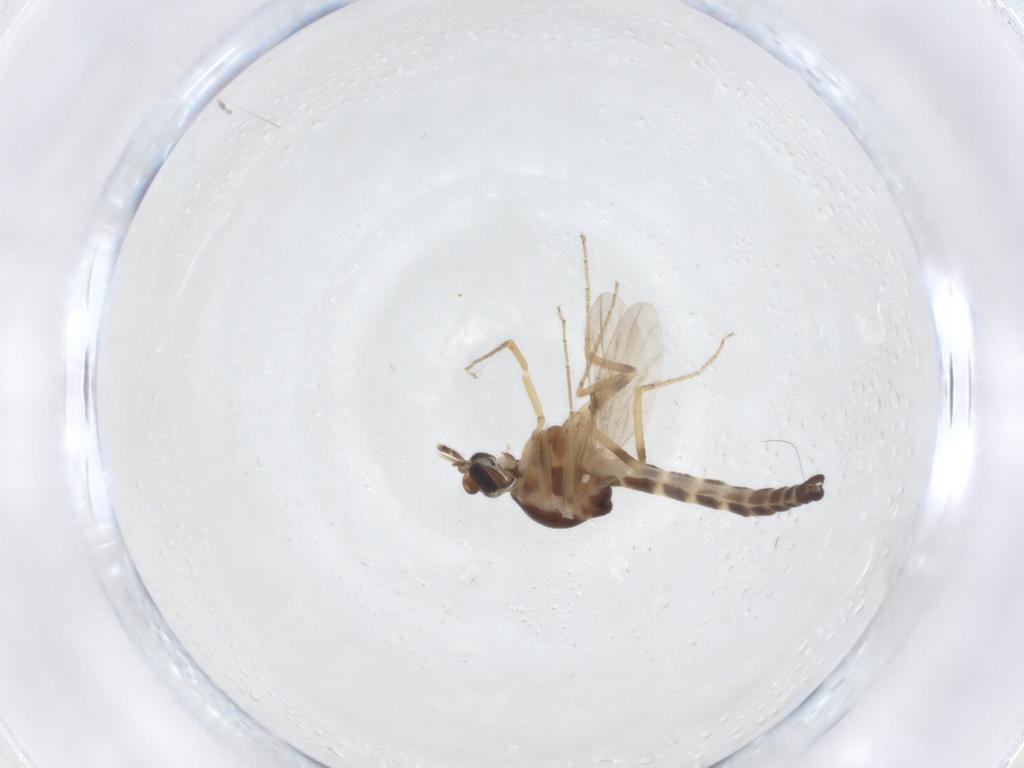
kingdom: Animalia
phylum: Arthropoda
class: Insecta
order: Diptera
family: Ceratopogonidae
